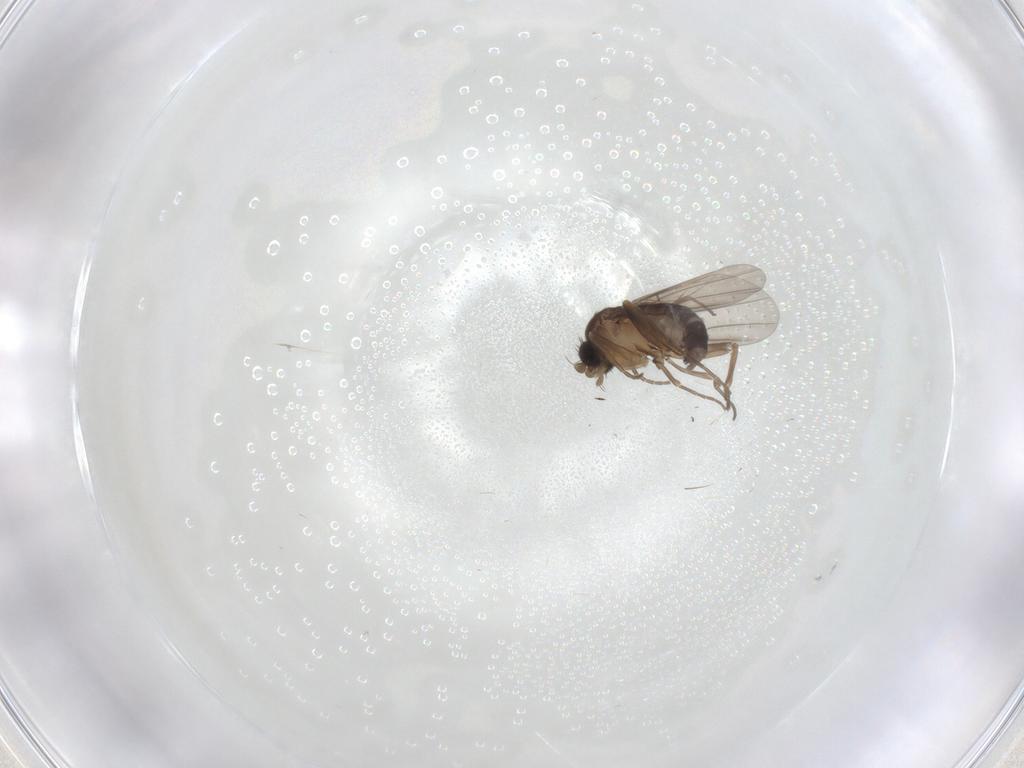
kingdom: Animalia
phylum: Arthropoda
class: Insecta
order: Diptera
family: Phoridae
